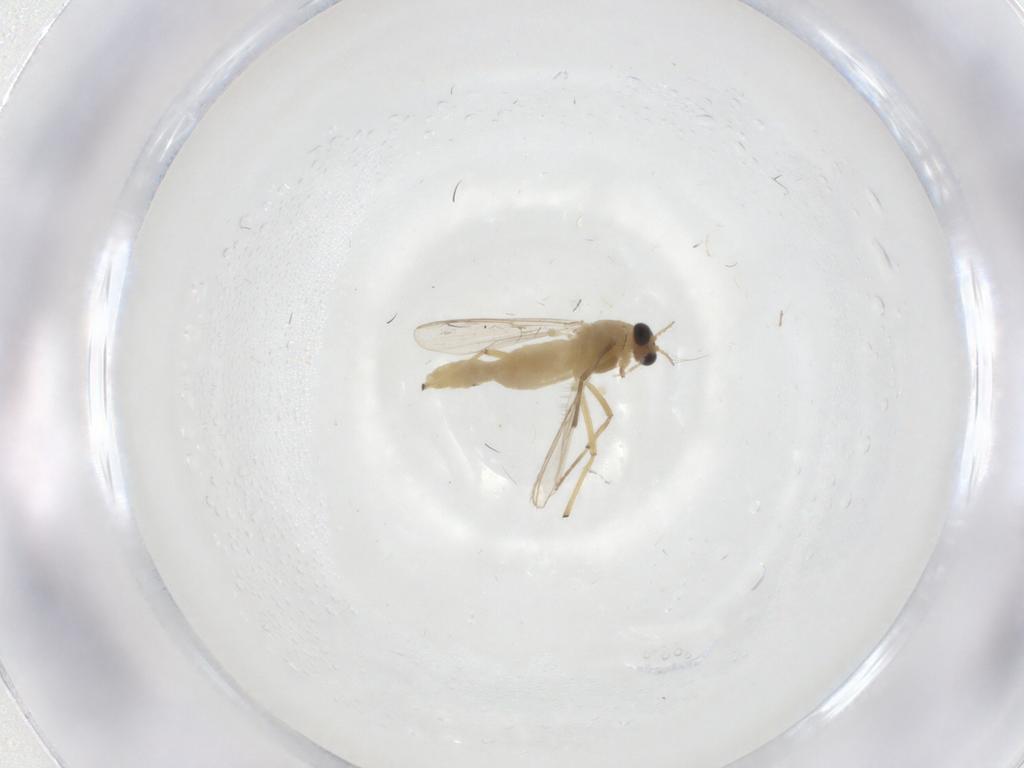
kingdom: Animalia
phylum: Arthropoda
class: Insecta
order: Diptera
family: Chironomidae
